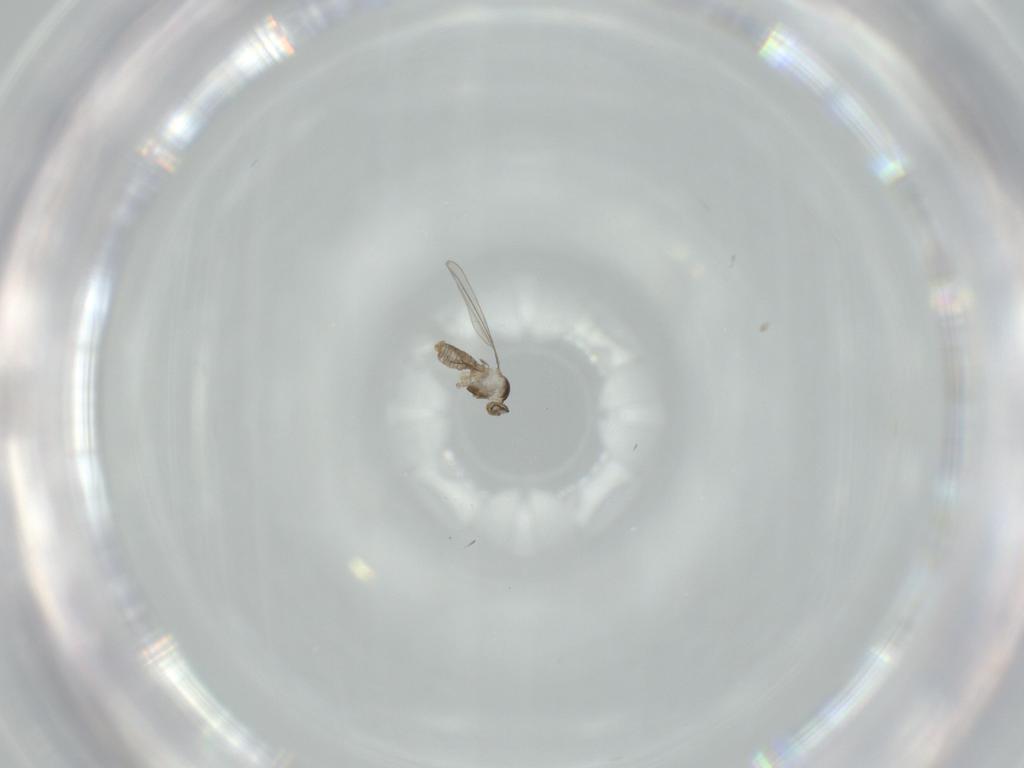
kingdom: Animalia
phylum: Arthropoda
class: Insecta
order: Diptera
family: Cecidomyiidae
